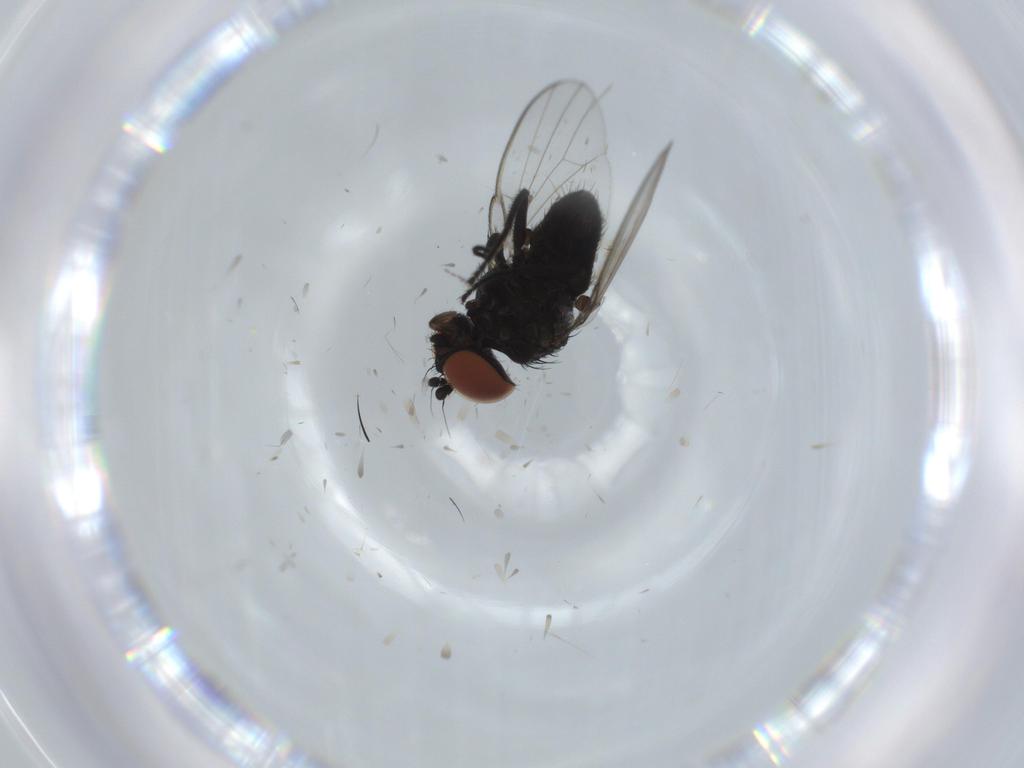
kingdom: Animalia
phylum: Arthropoda
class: Insecta
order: Diptera
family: Milichiidae
